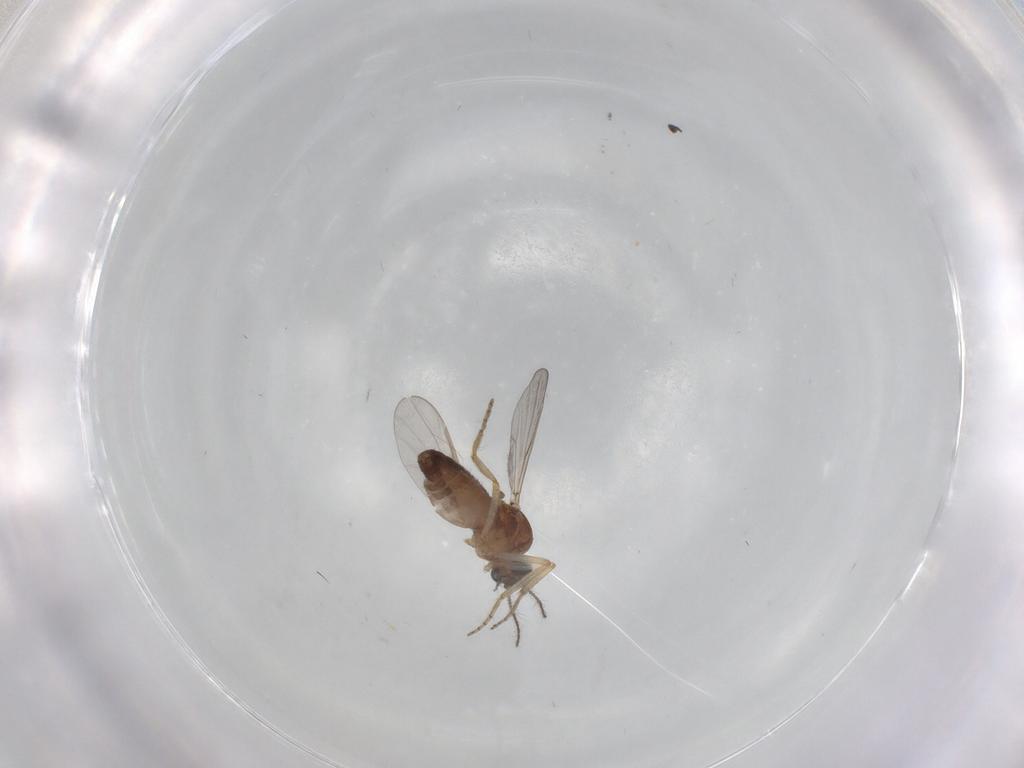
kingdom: Animalia
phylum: Arthropoda
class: Insecta
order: Diptera
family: Ceratopogonidae
